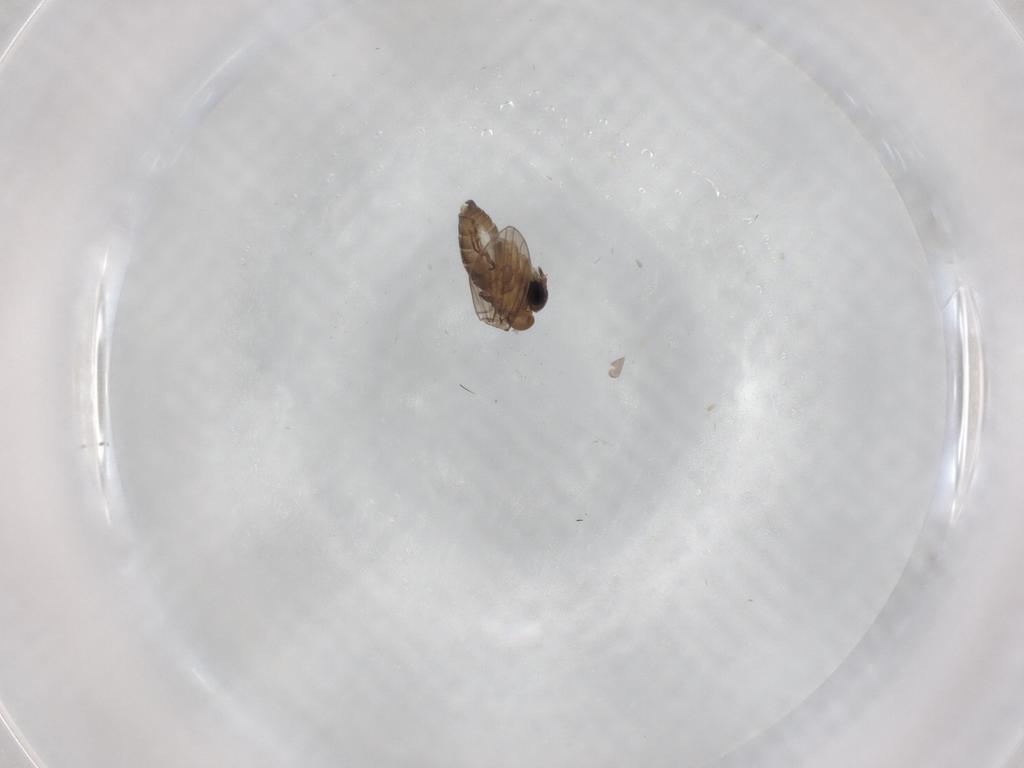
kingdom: Animalia
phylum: Arthropoda
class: Insecta
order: Diptera
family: Cecidomyiidae
